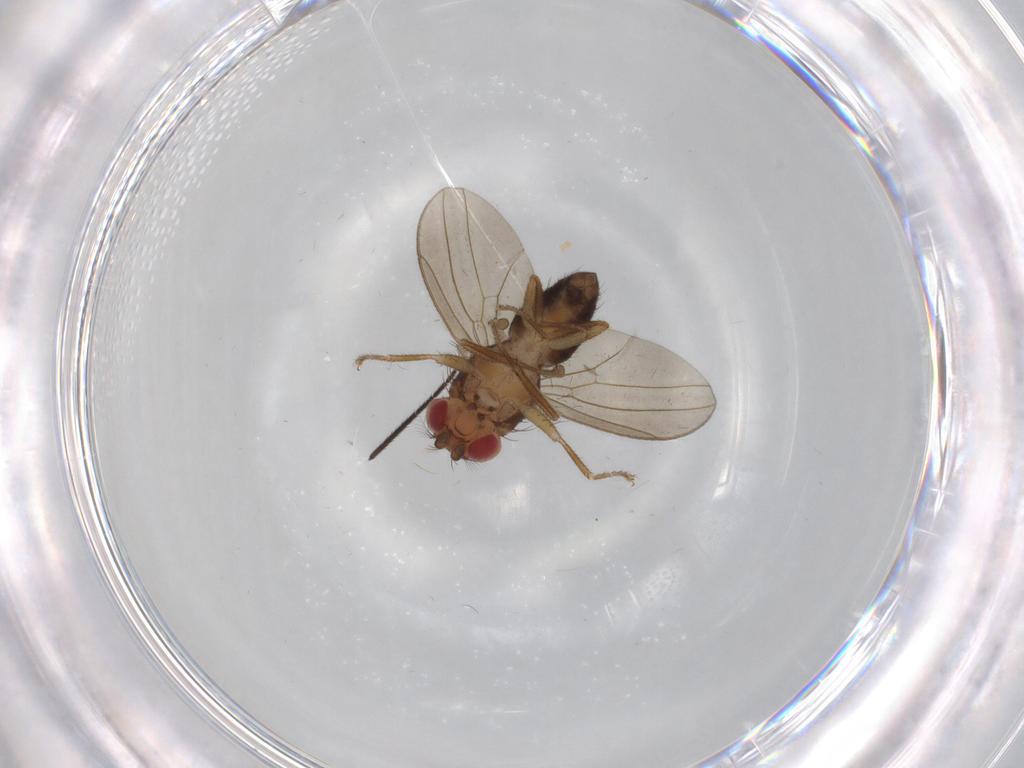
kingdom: Animalia
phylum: Arthropoda
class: Insecta
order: Diptera
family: Drosophilidae
